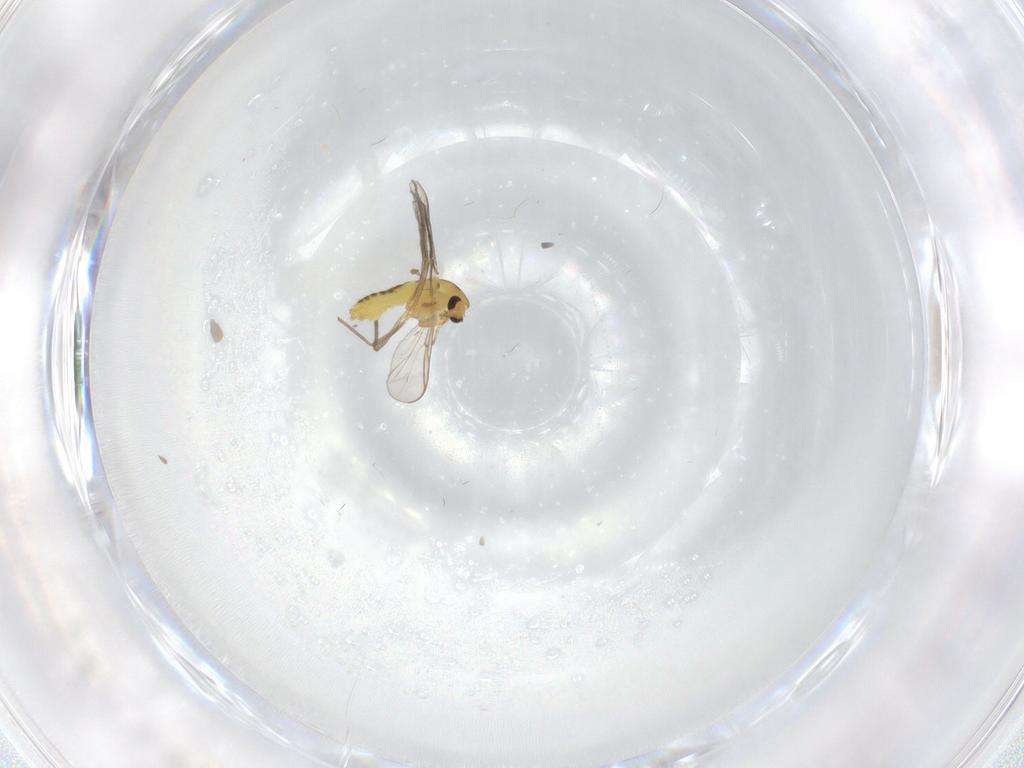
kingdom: Animalia
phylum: Arthropoda
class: Insecta
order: Diptera
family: Chironomidae
